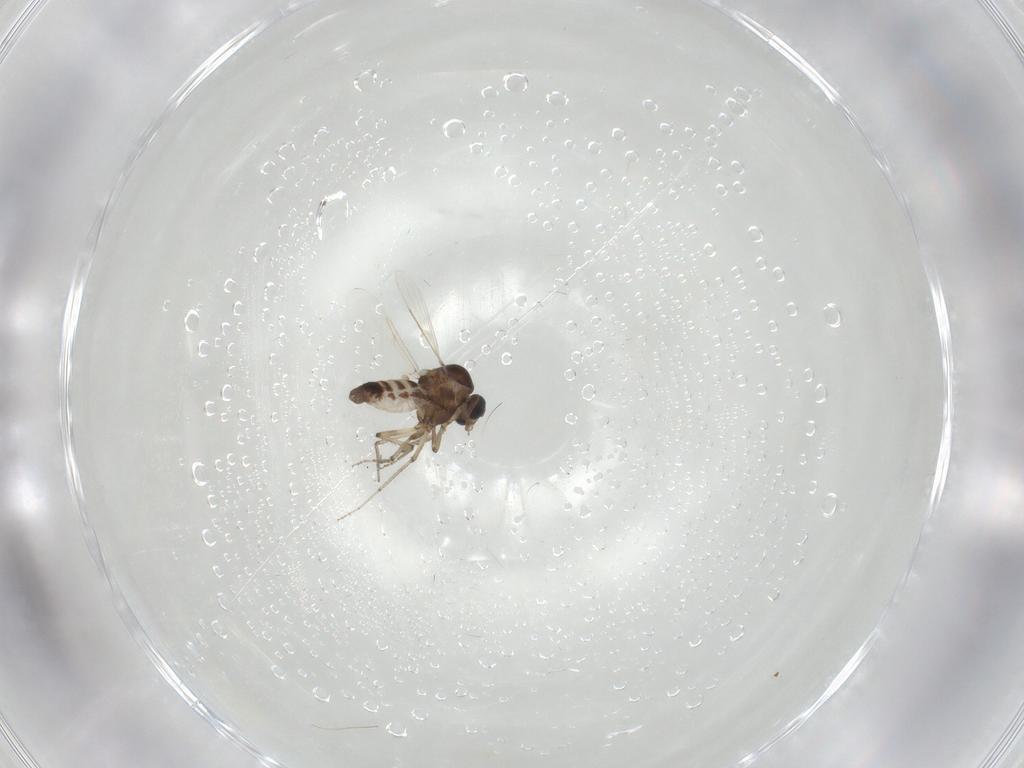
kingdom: Animalia
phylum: Arthropoda
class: Insecta
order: Diptera
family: Ceratopogonidae
